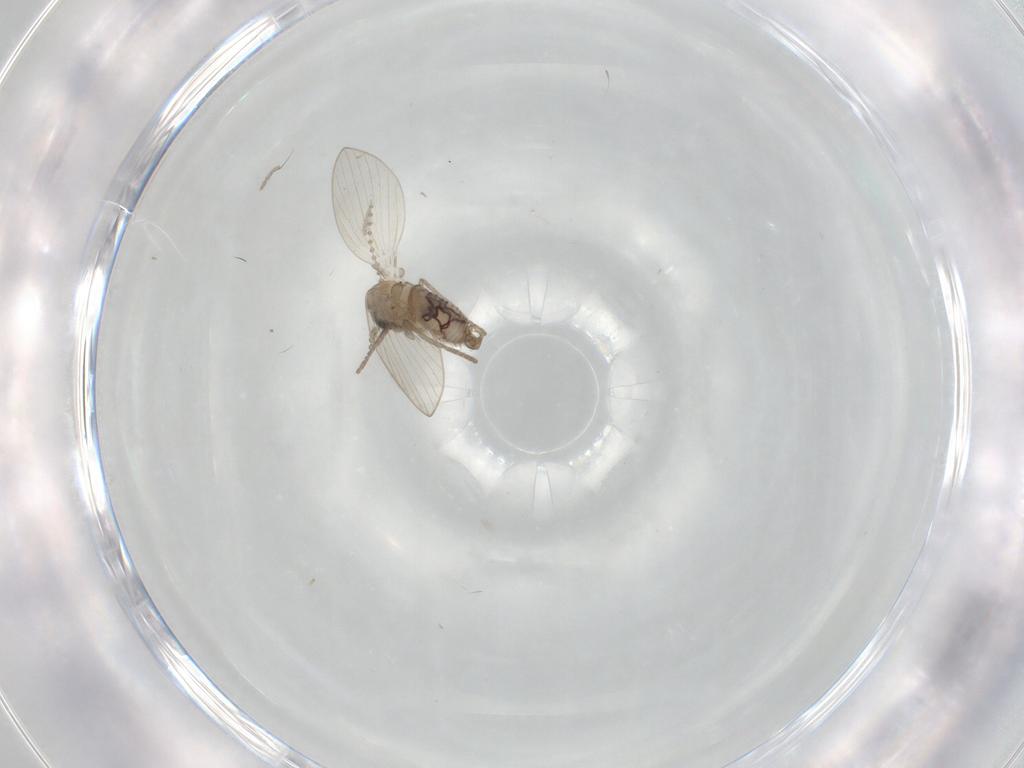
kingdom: Animalia
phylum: Arthropoda
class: Insecta
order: Diptera
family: Psychodidae
